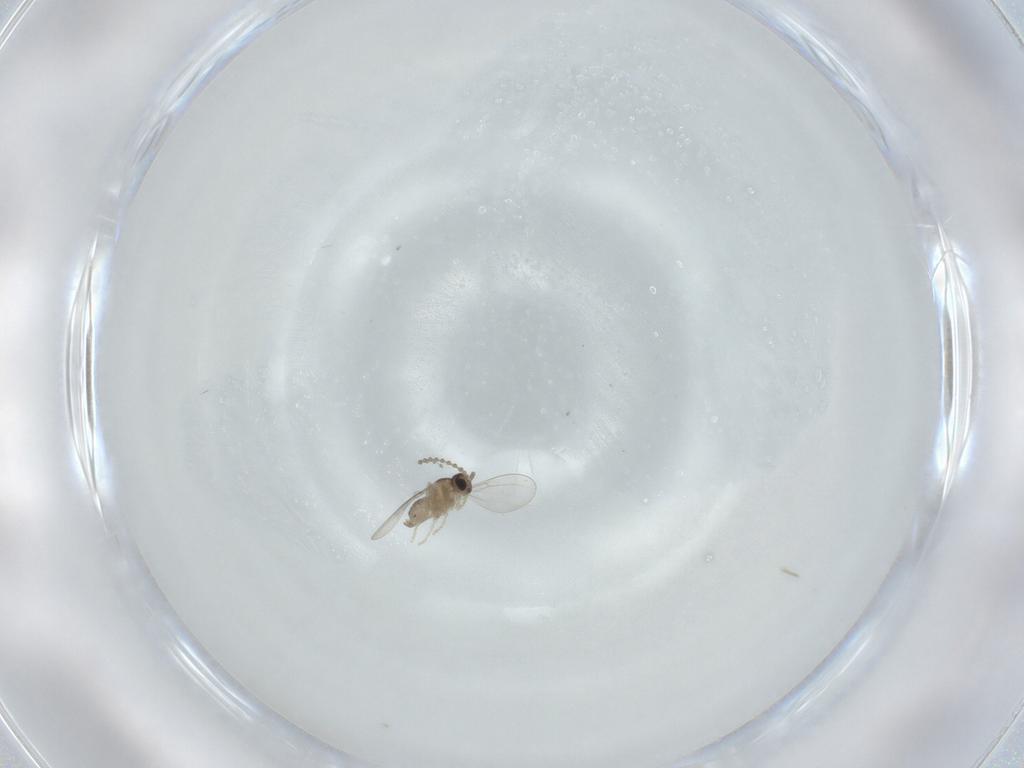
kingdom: Animalia
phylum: Arthropoda
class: Insecta
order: Diptera
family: Cecidomyiidae
